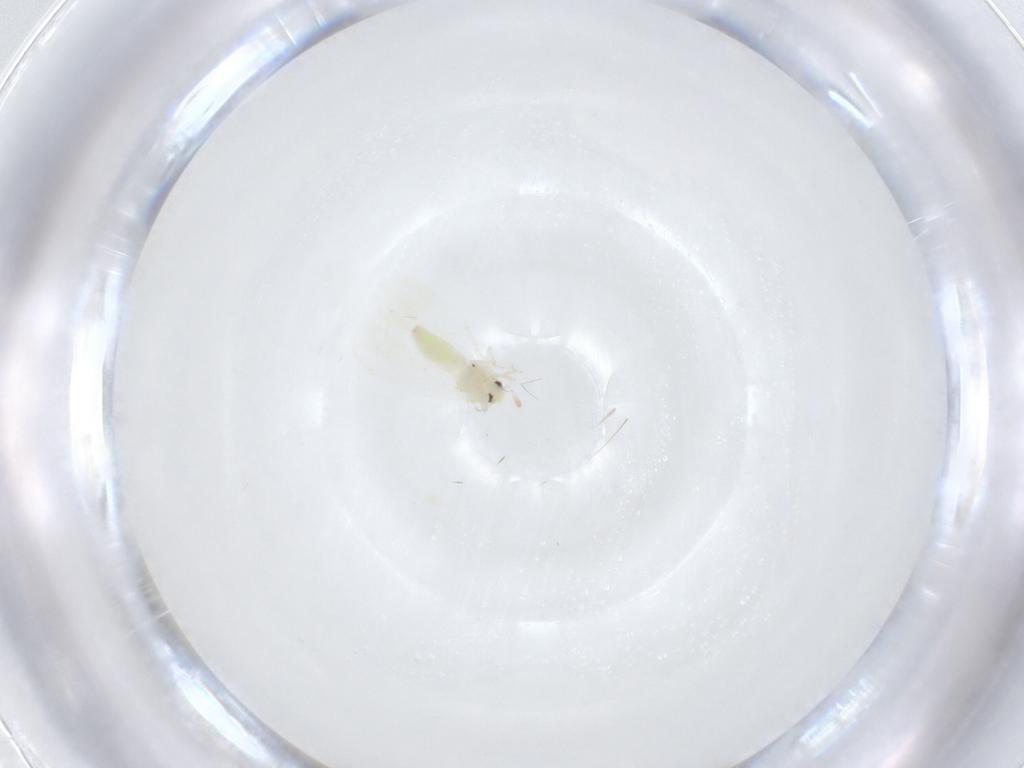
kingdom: Animalia
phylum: Arthropoda
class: Insecta
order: Hemiptera
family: Aleyrodidae
